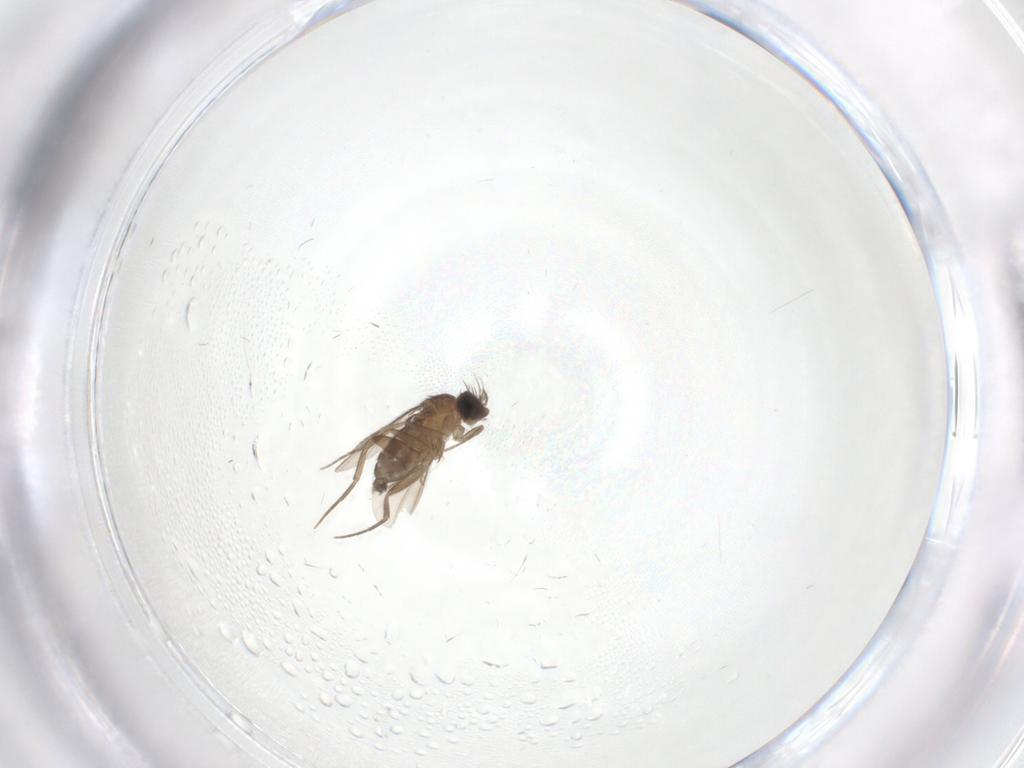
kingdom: Animalia
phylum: Arthropoda
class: Insecta
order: Diptera
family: Phoridae
